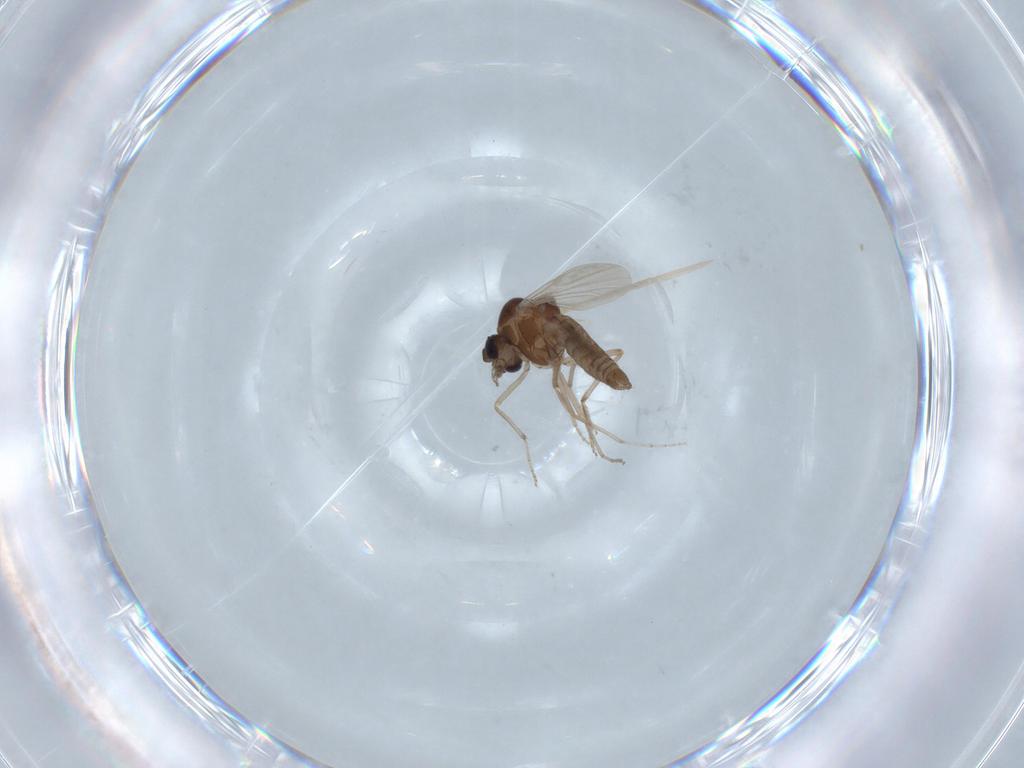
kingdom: Animalia
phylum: Arthropoda
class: Insecta
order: Diptera
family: Ceratopogonidae
